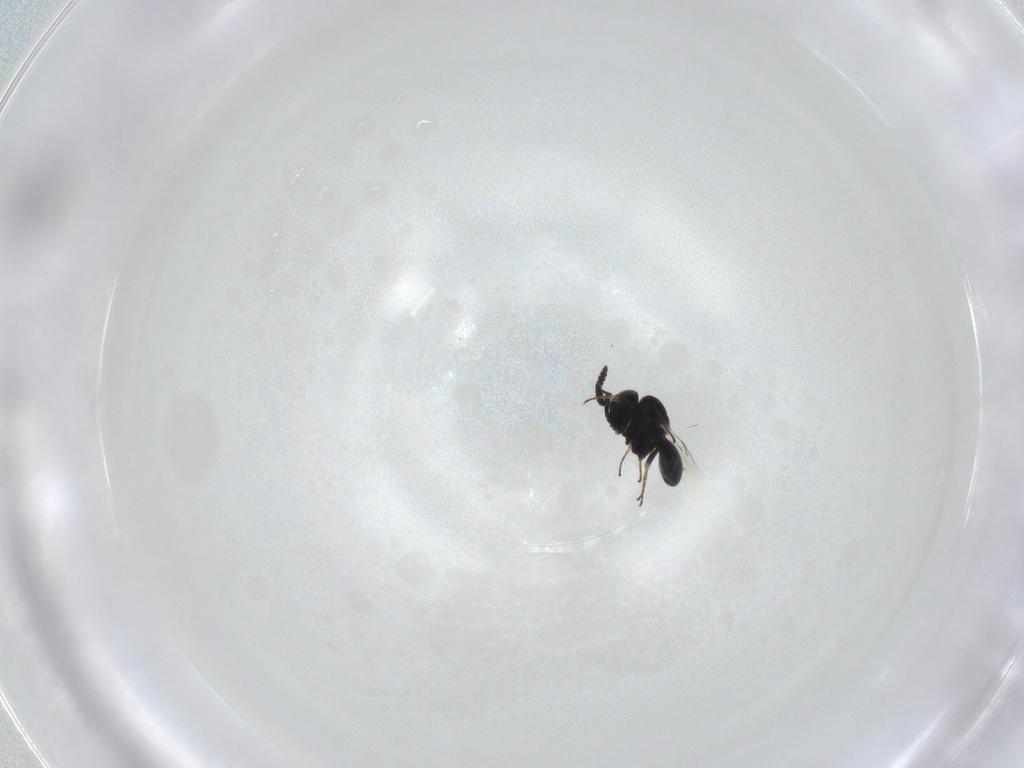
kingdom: Animalia
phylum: Arthropoda
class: Insecta
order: Hymenoptera
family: Scelionidae
